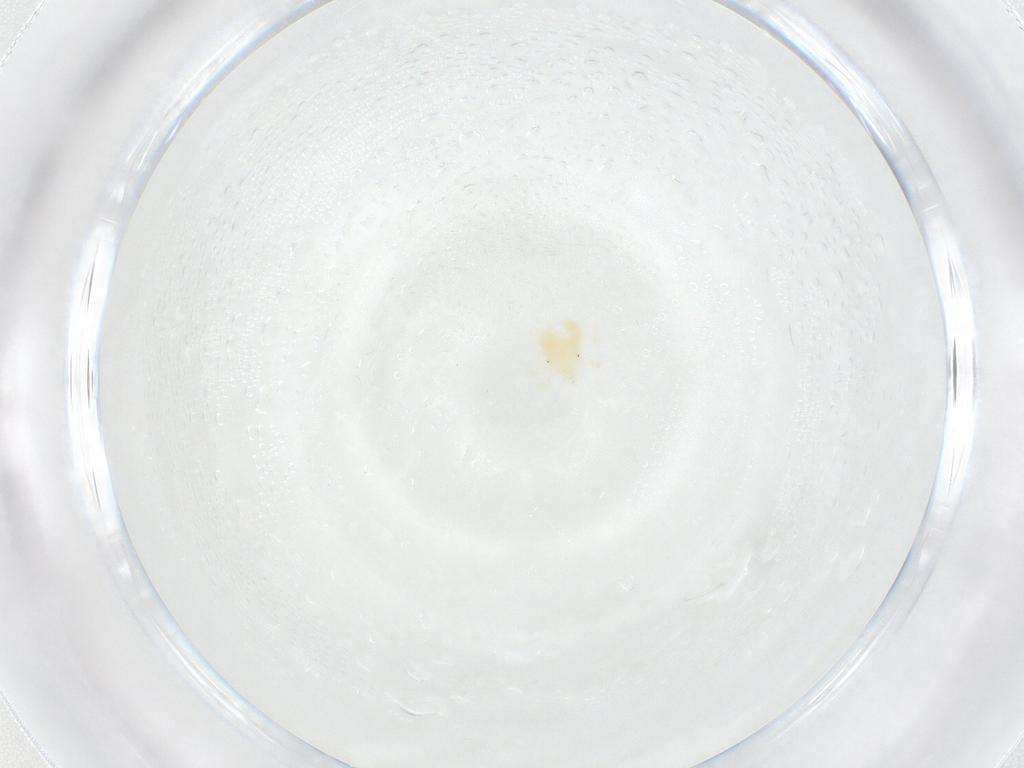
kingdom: Animalia
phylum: Arthropoda
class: Arachnida
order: Trombidiformes
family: Anystidae
